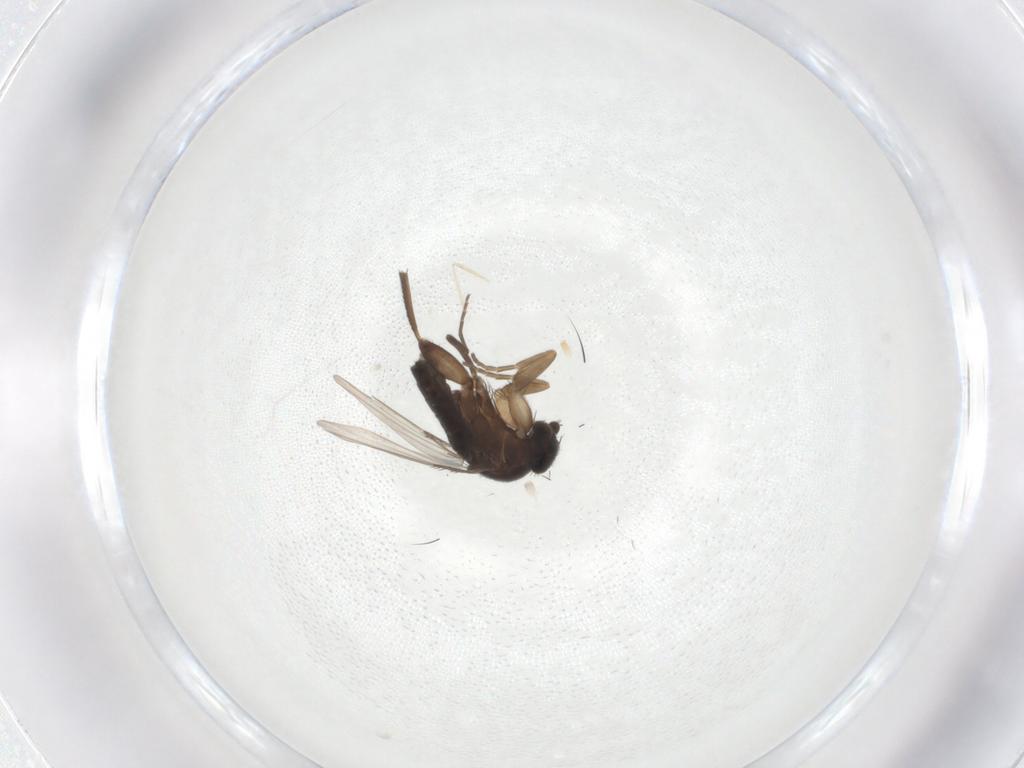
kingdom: Animalia
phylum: Arthropoda
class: Insecta
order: Diptera
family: Cecidomyiidae
